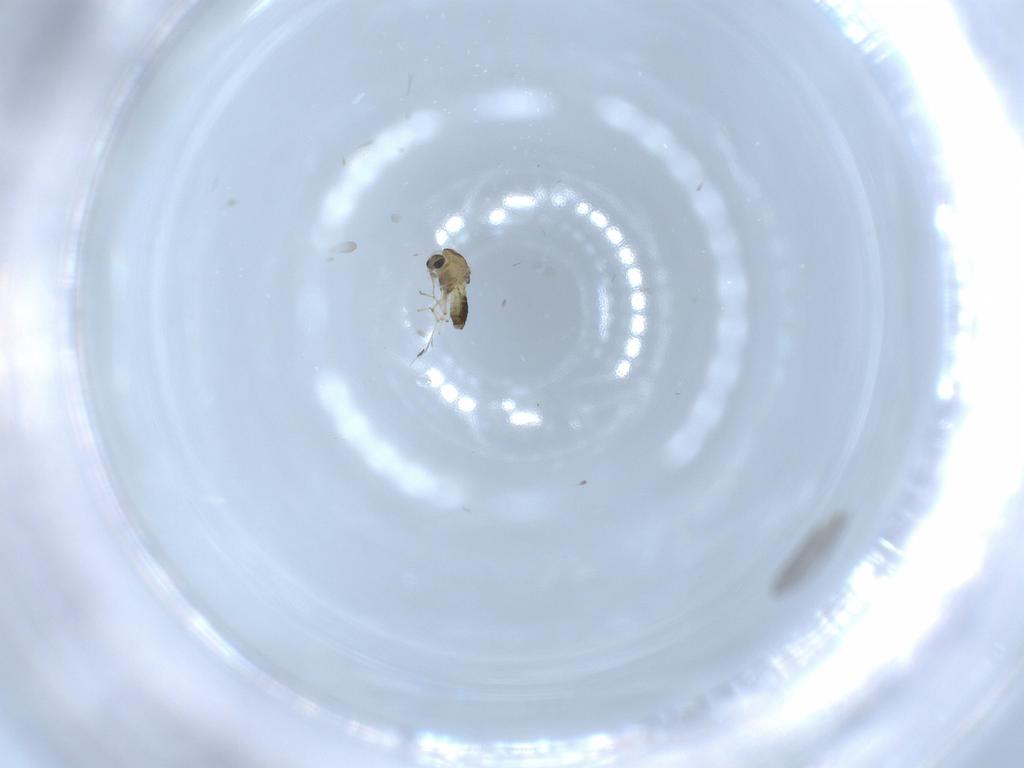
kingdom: Animalia
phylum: Arthropoda
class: Insecta
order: Diptera
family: Chironomidae
